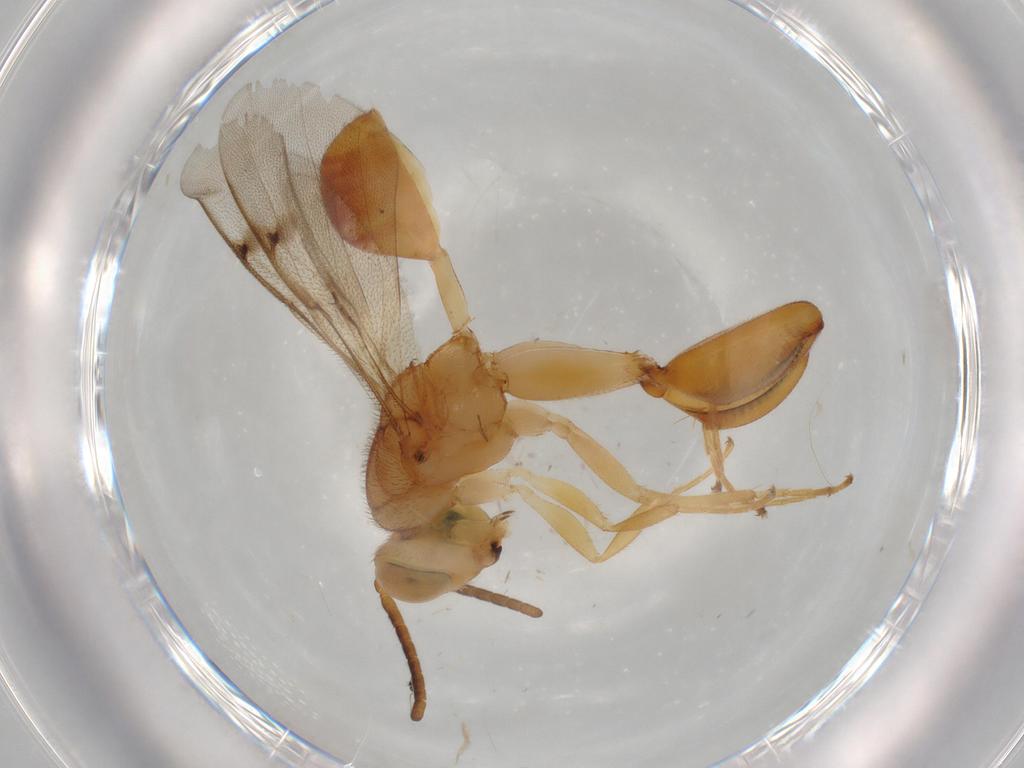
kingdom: Animalia
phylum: Arthropoda
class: Insecta
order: Hymenoptera
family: Chalcididae
